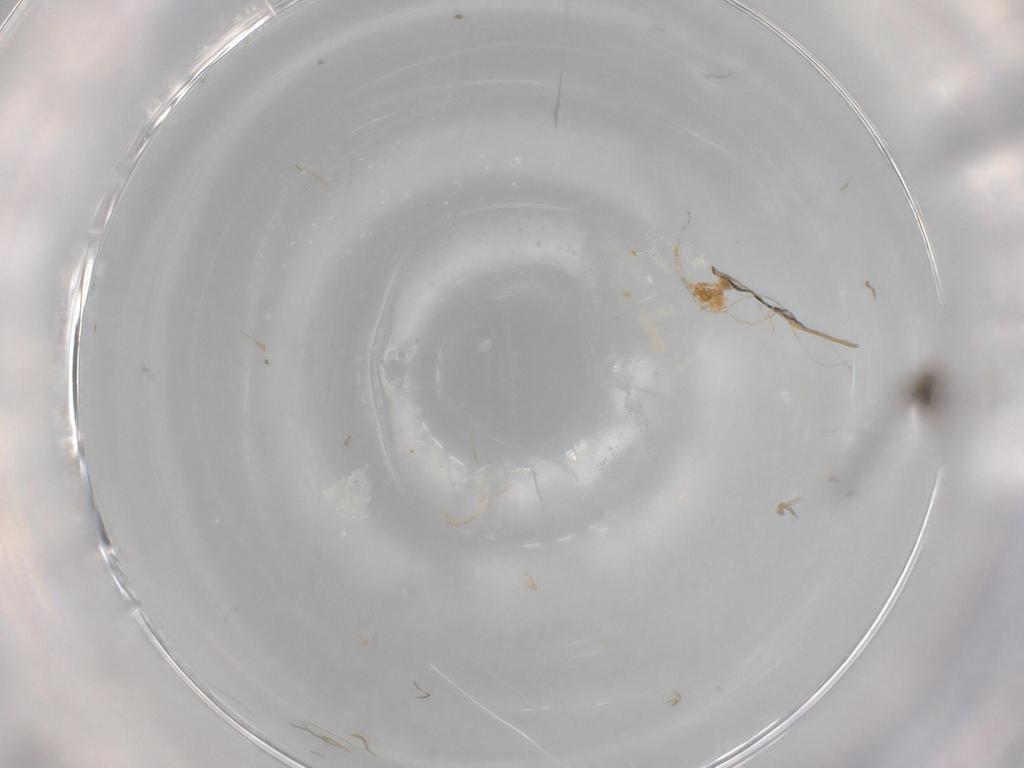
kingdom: Animalia
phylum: Arthropoda
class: Insecta
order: Diptera
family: Cecidomyiidae
